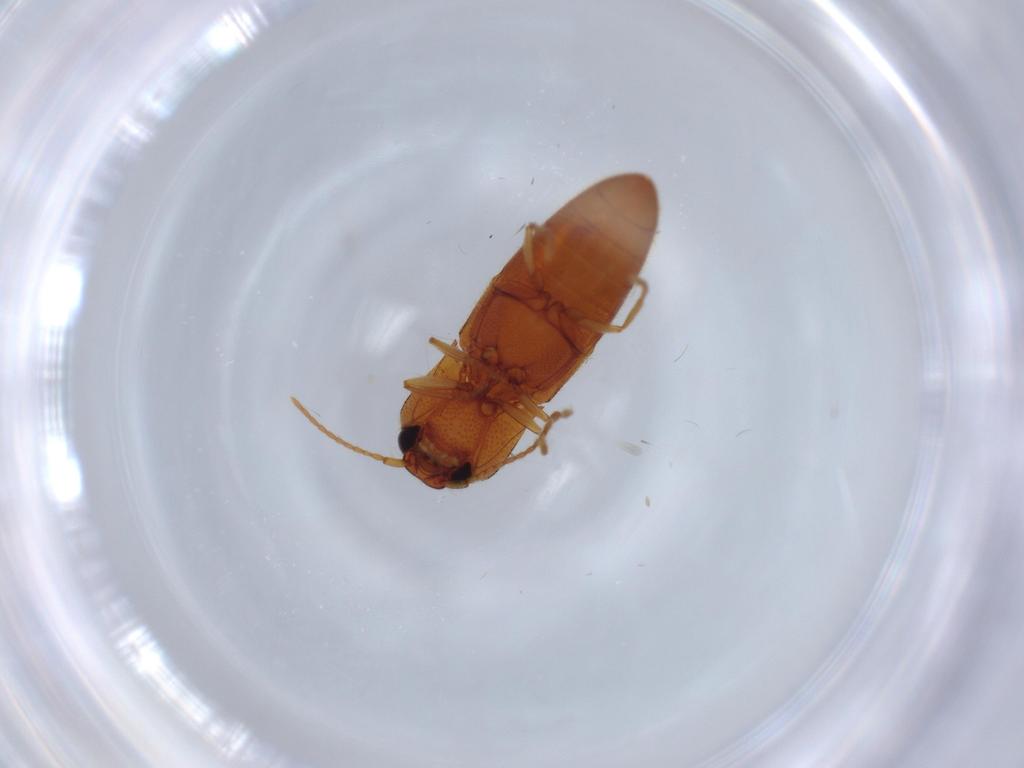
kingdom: Animalia
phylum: Arthropoda
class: Insecta
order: Coleoptera
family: Elateridae
